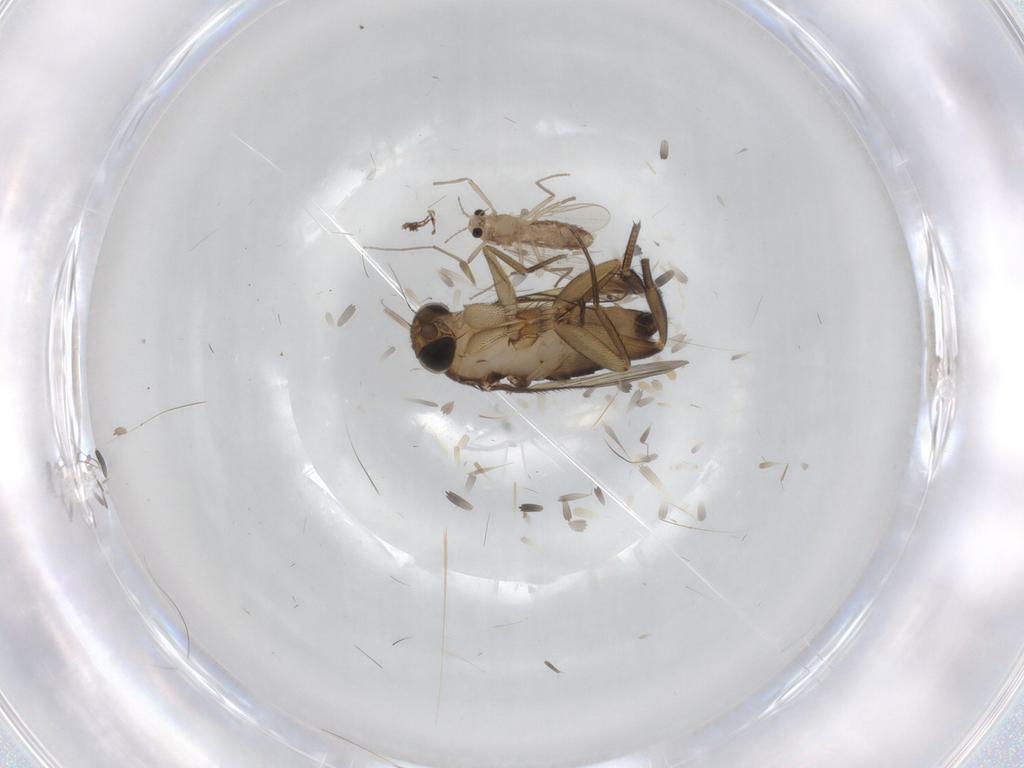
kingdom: Animalia
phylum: Arthropoda
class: Insecta
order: Diptera
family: Phoridae
